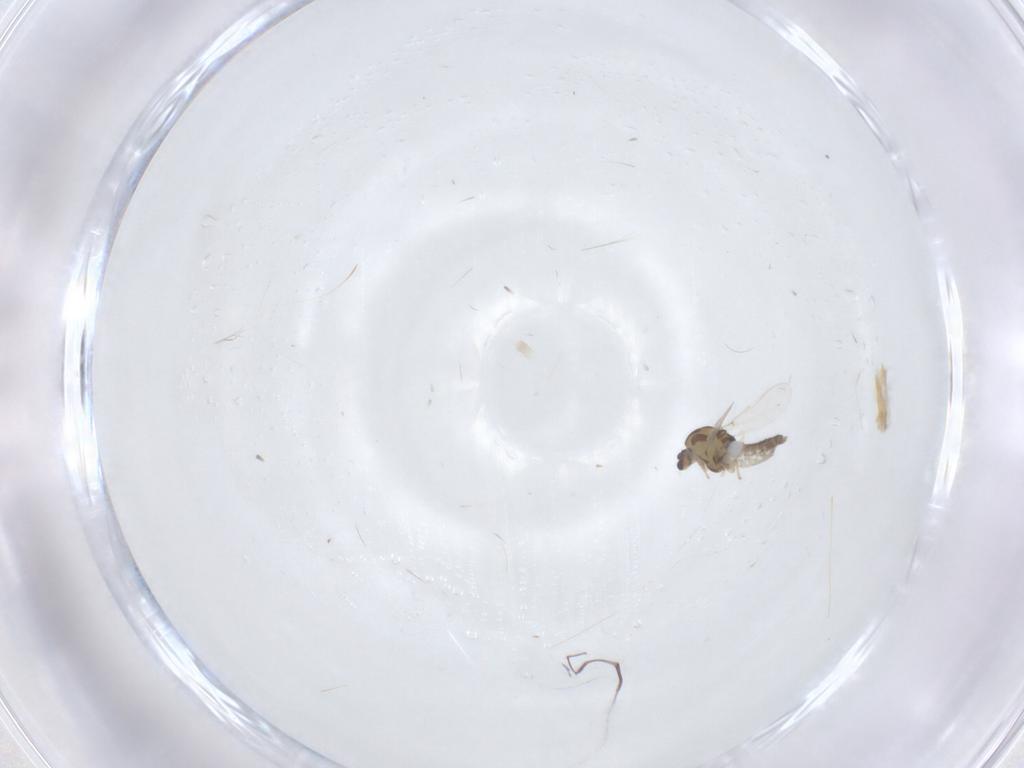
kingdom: Animalia
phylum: Arthropoda
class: Insecta
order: Diptera
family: Chironomidae
